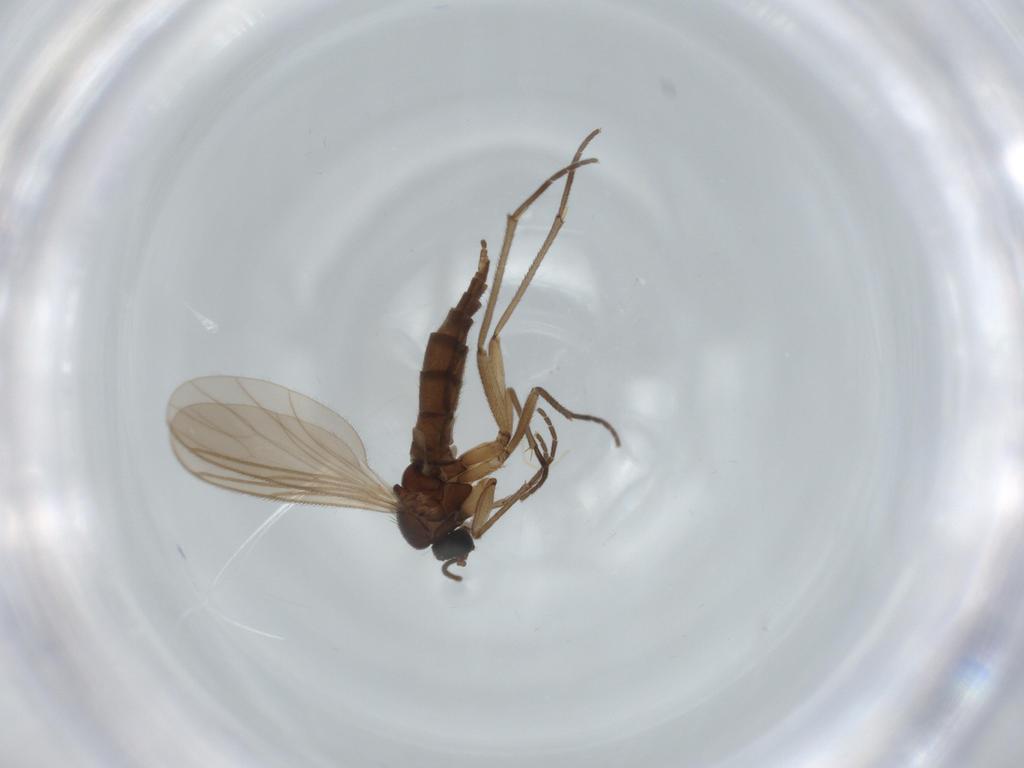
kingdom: Animalia
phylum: Arthropoda
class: Insecta
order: Diptera
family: Sciaridae
